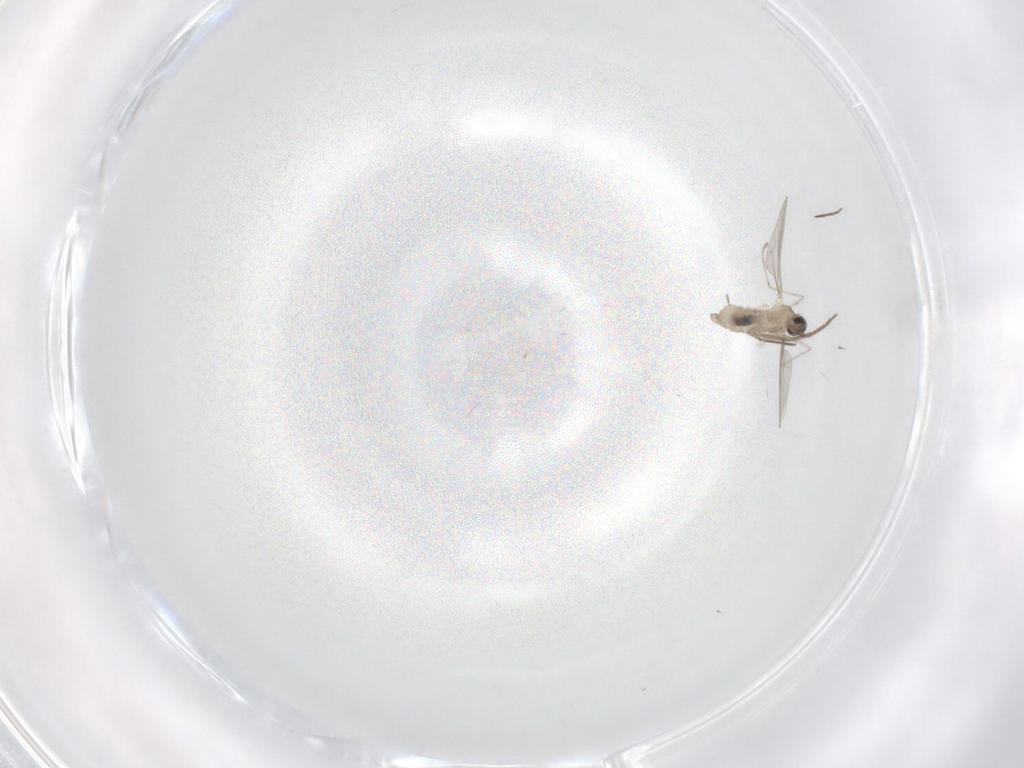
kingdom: Animalia
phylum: Arthropoda
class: Insecta
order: Diptera
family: Chironomidae
